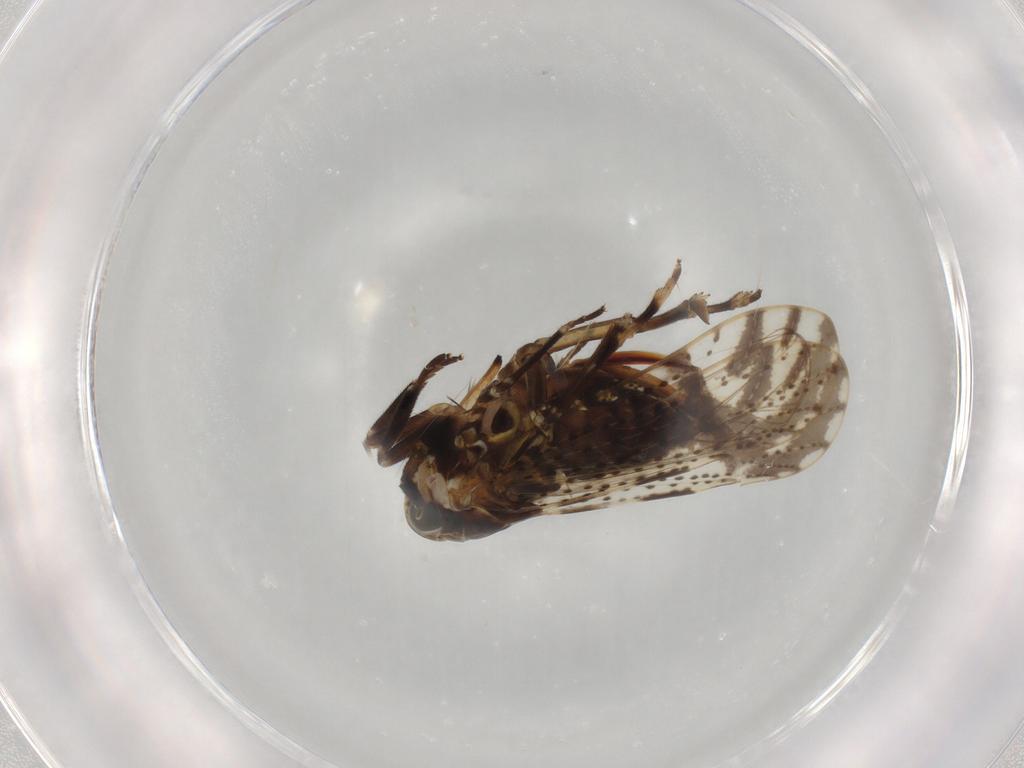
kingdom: Animalia
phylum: Arthropoda
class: Insecta
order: Hemiptera
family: Delphacidae
